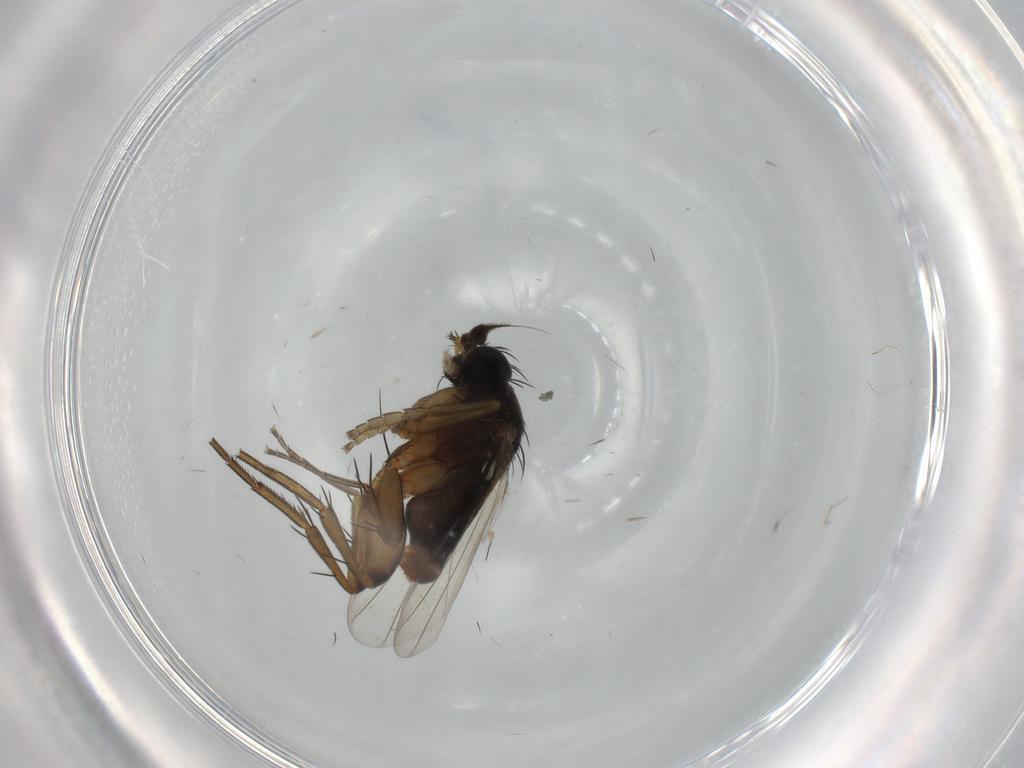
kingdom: Animalia
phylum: Arthropoda
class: Insecta
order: Diptera
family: Phoridae
